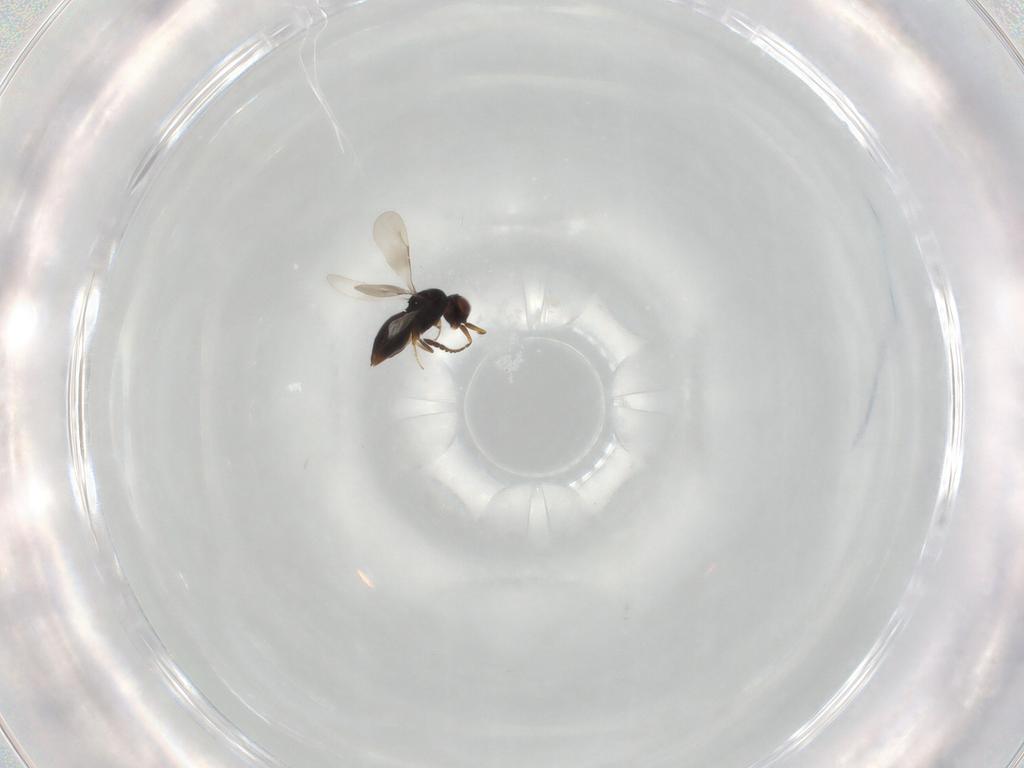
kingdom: Animalia
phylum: Arthropoda
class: Insecta
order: Hymenoptera
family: Ceraphronidae
